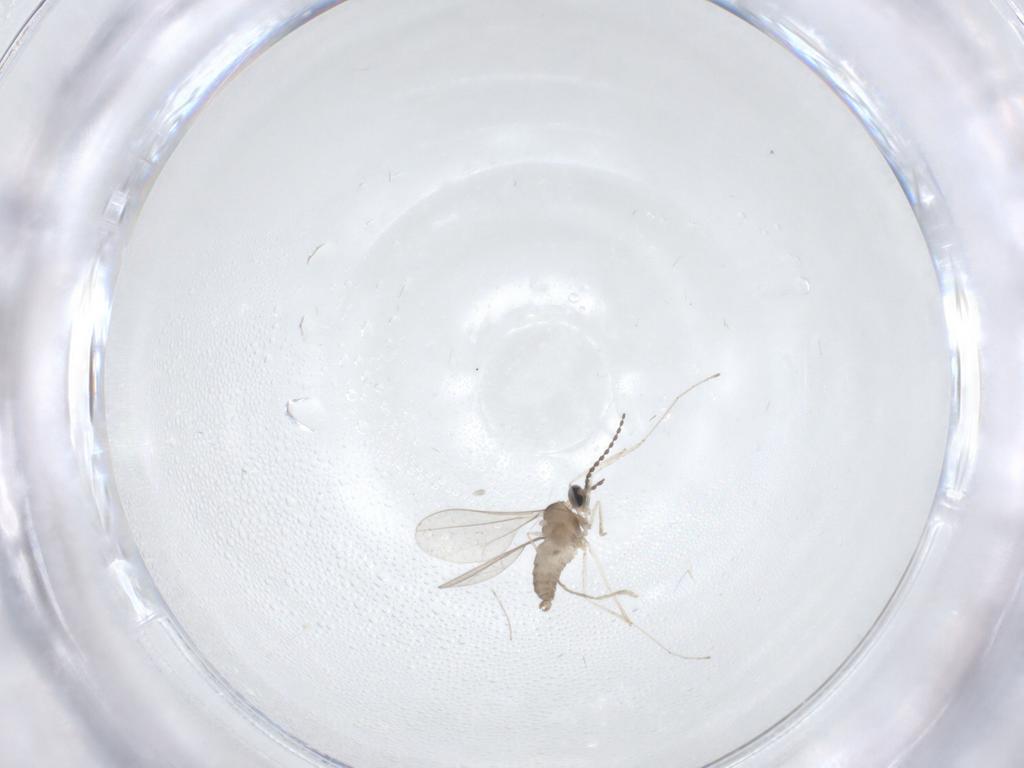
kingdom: Animalia
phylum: Arthropoda
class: Insecta
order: Diptera
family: Cecidomyiidae
